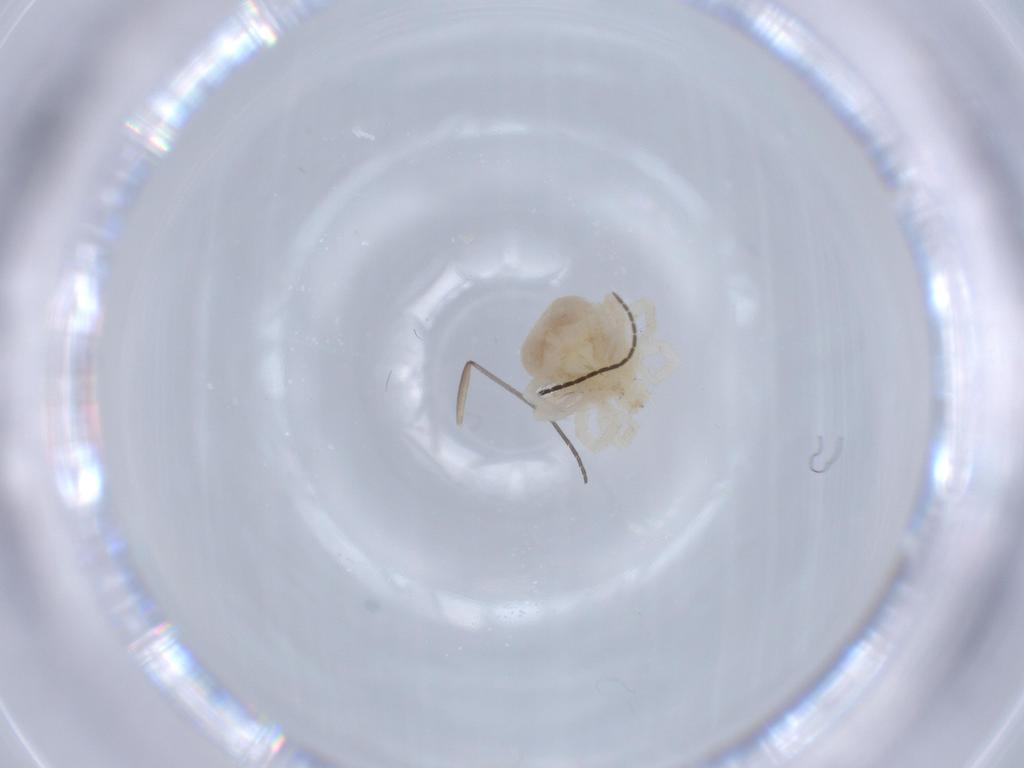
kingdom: Animalia
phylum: Arthropoda
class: Arachnida
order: Trombidiformes
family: Anystidae
